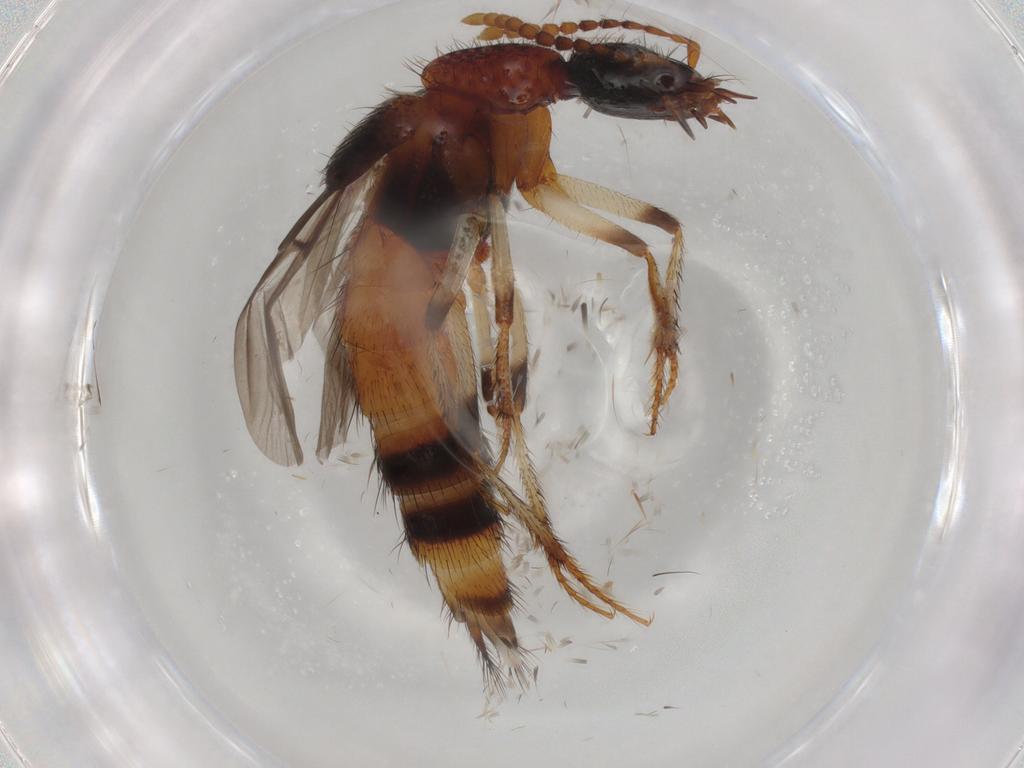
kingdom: Animalia
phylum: Arthropoda
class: Insecta
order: Coleoptera
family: Staphylinidae
